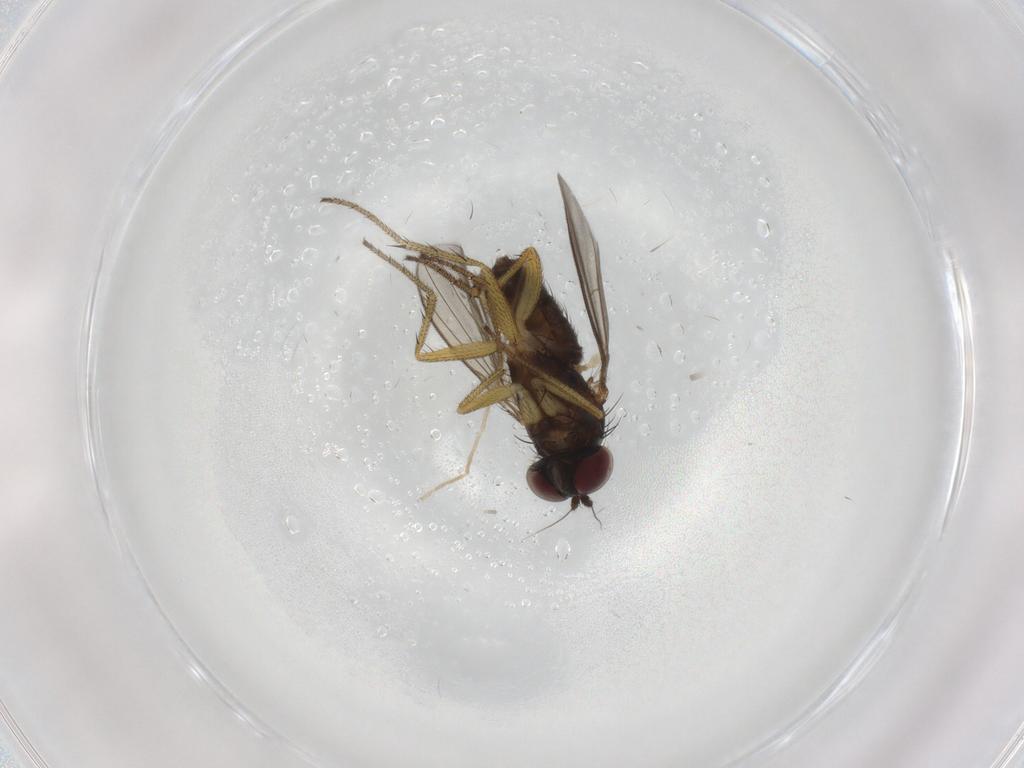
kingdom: Animalia
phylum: Arthropoda
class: Insecta
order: Diptera
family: Dolichopodidae
